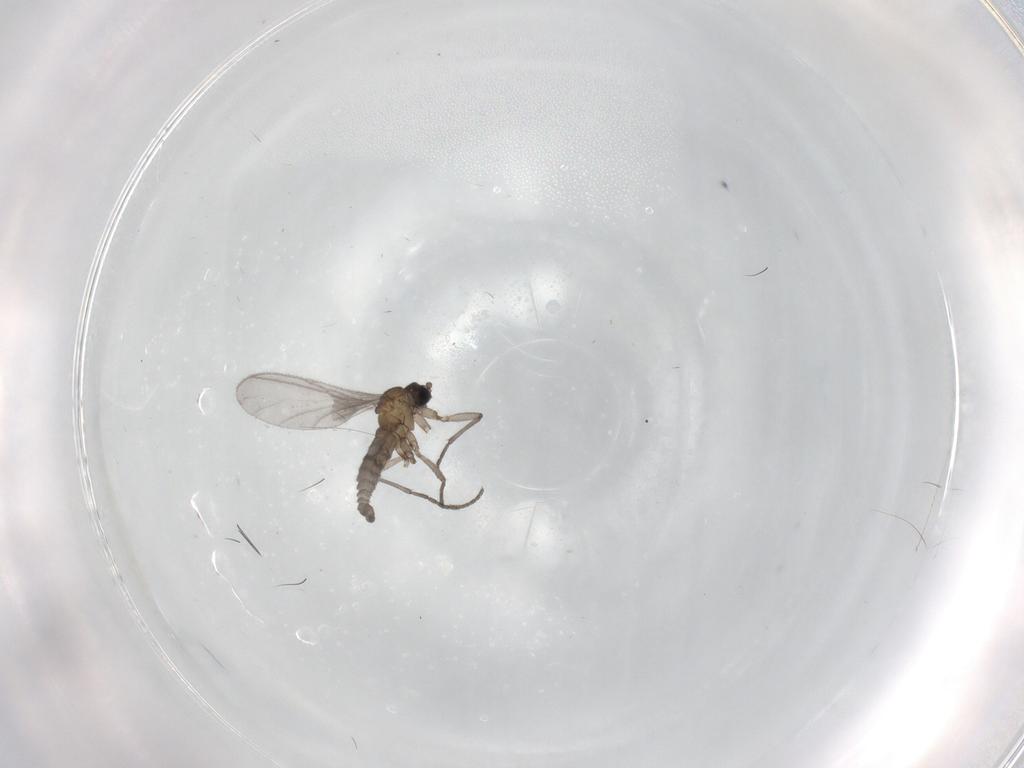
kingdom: Animalia
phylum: Arthropoda
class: Insecta
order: Diptera
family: Sciaridae
